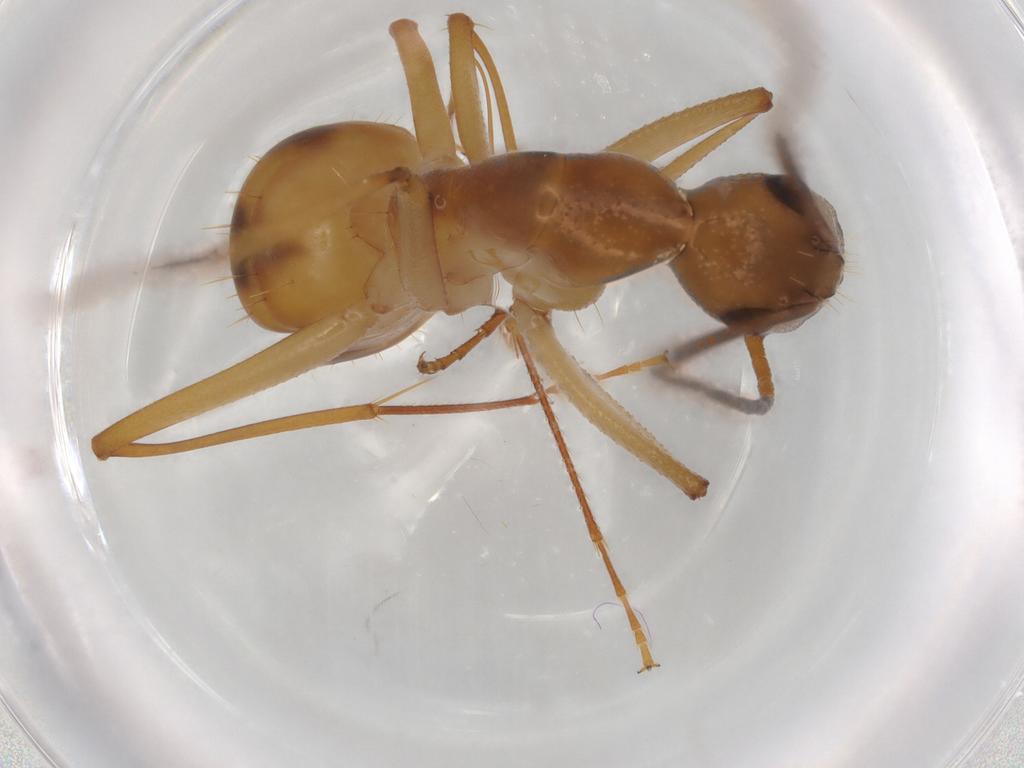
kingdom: Animalia
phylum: Arthropoda
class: Insecta
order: Hymenoptera
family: Formicidae
